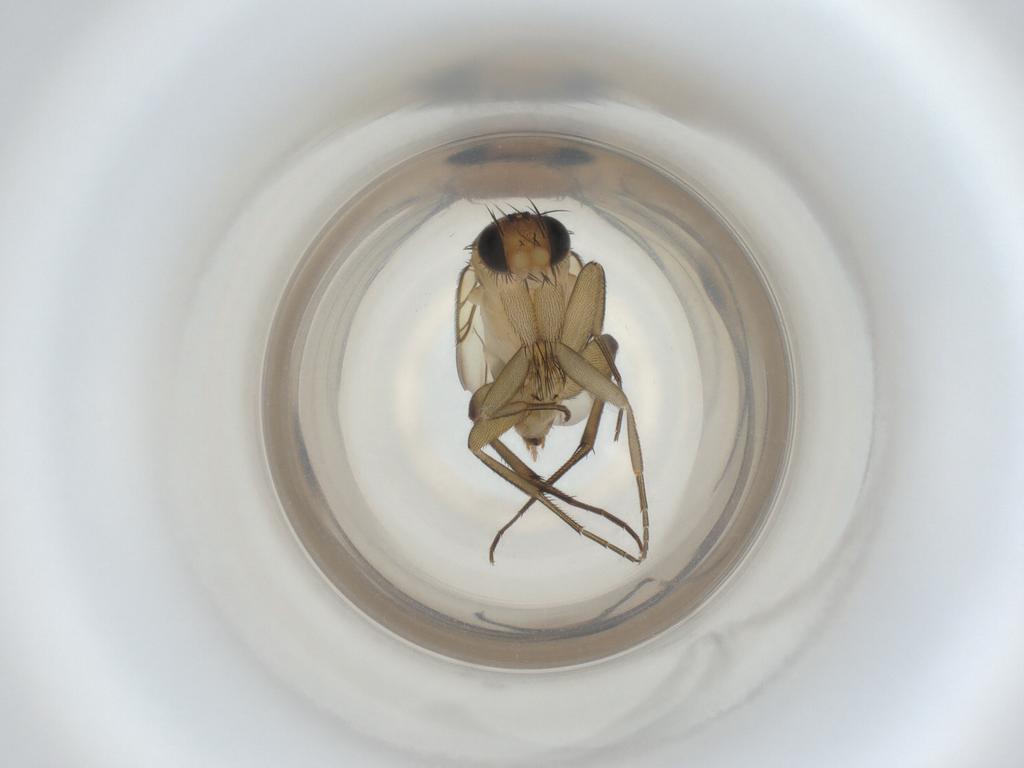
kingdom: Animalia
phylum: Arthropoda
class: Insecta
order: Diptera
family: Phoridae
